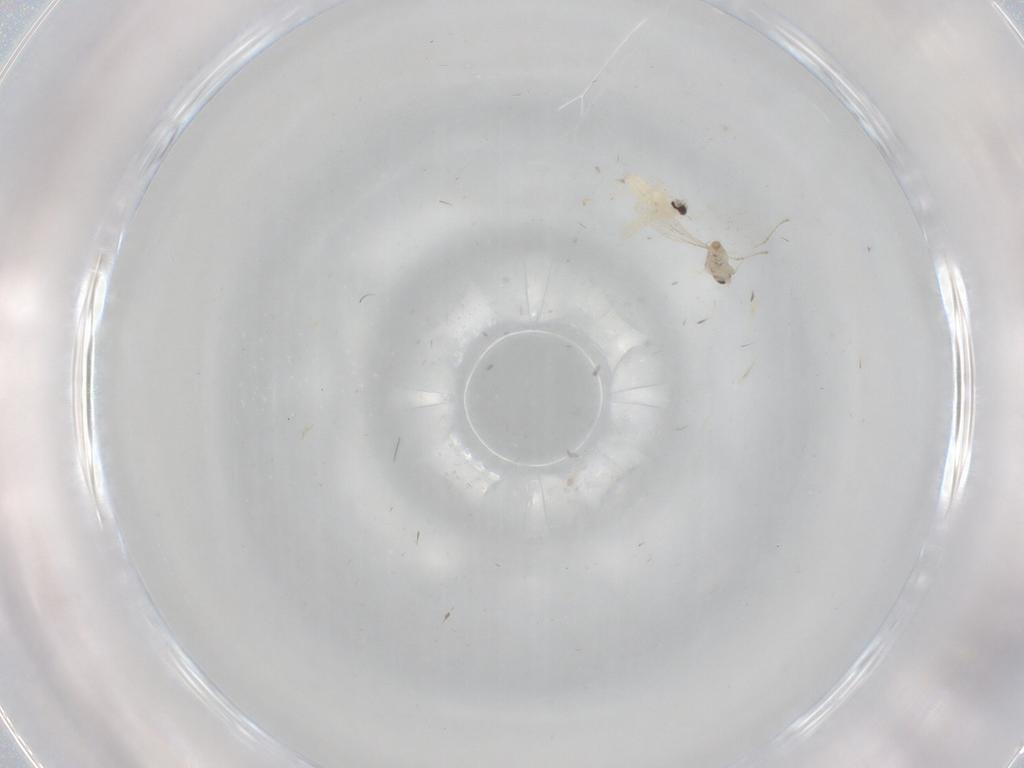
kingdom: Animalia
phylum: Arthropoda
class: Insecta
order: Diptera
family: Cecidomyiidae
